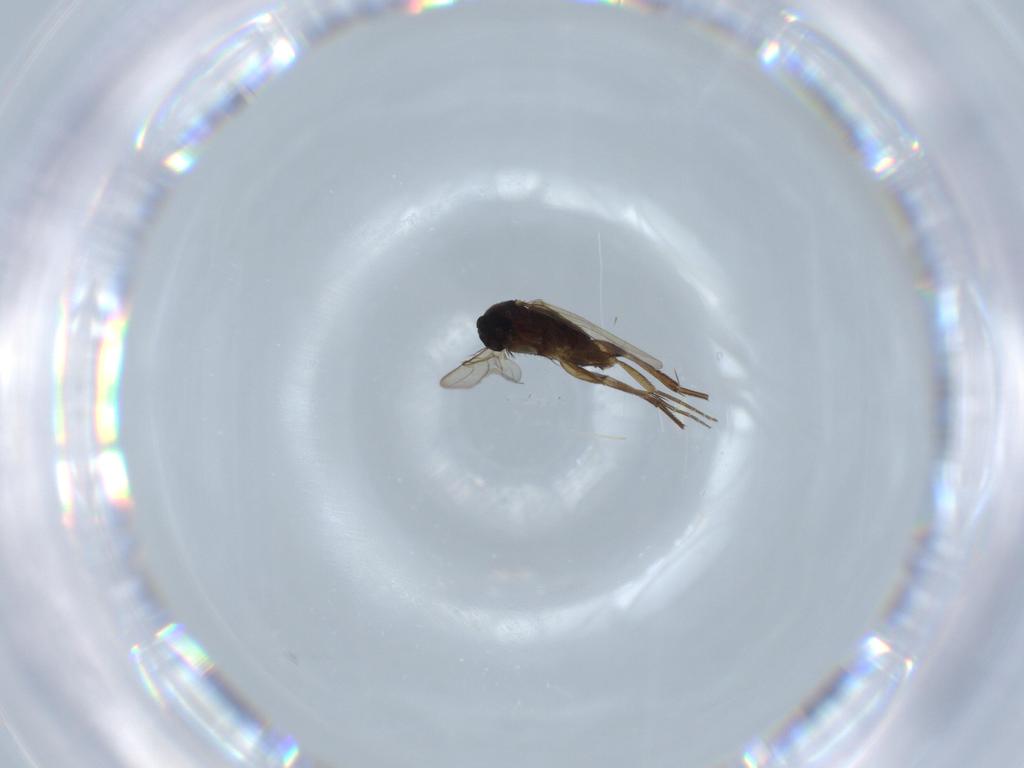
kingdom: Animalia
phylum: Arthropoda
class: Insecta
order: Diptera
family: Phoridae
